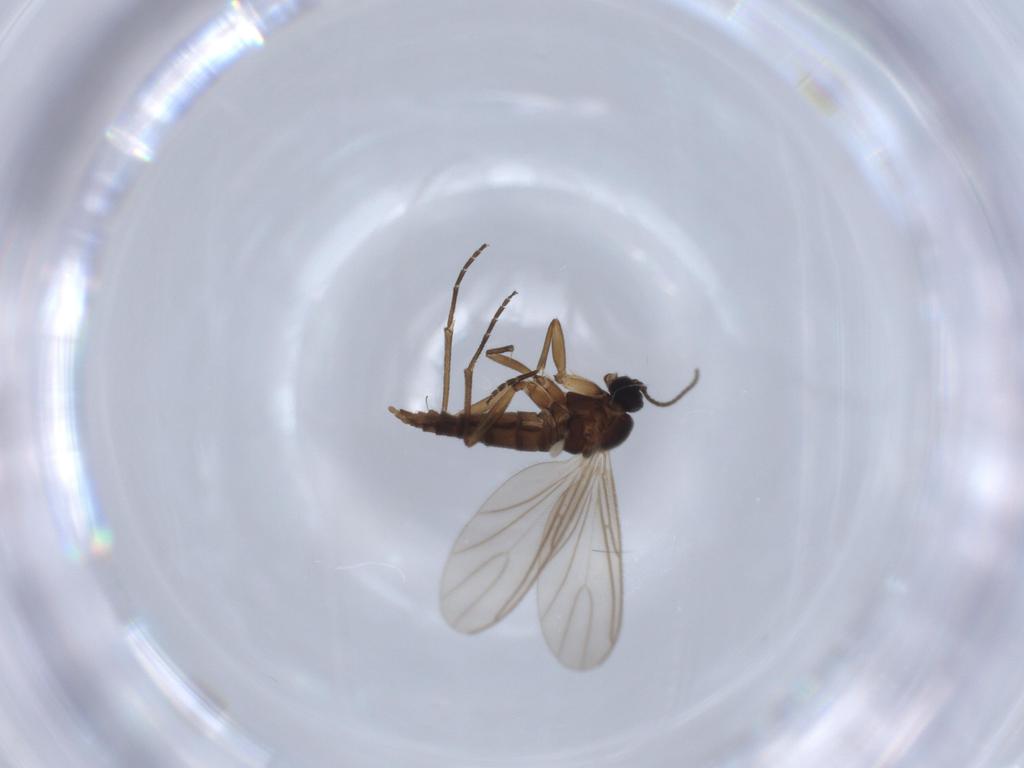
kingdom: Animalia
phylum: Arthropoda
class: Insecta
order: Diptera
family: Sciaridae
